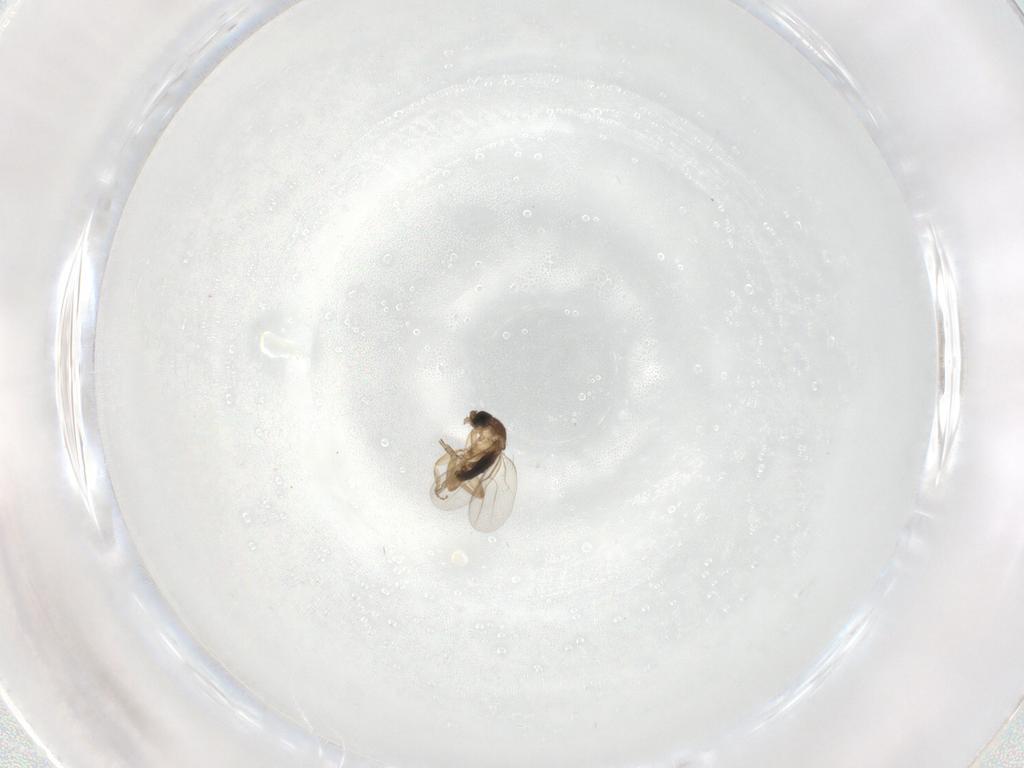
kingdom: Animalia
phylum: Arthropoda
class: Insecta
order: Diptera
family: Phoridae
